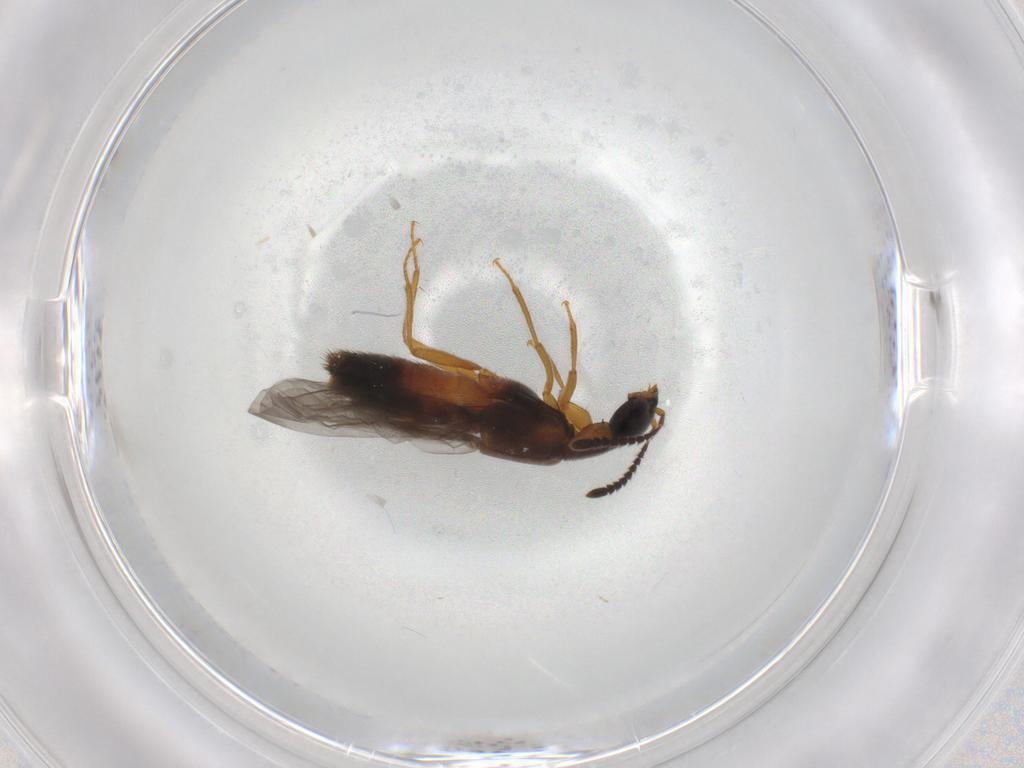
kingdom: Animalia
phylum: Arthropoda
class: Insecta
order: Coleoptera
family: Staphylinidae
